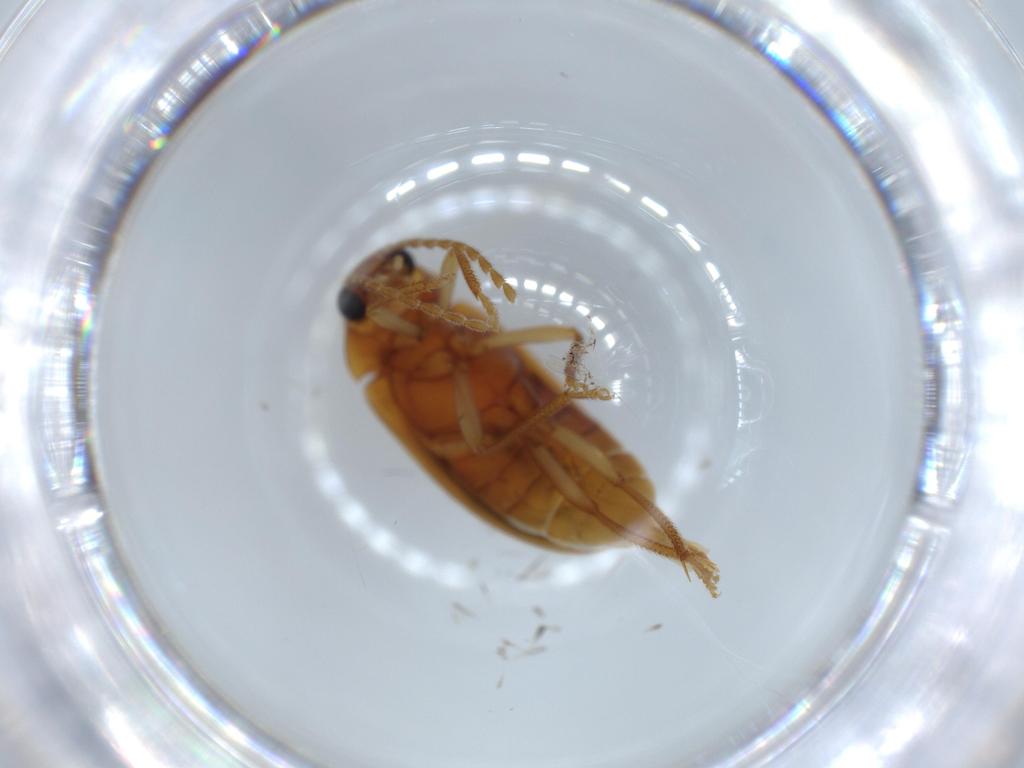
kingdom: Animalia
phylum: Arthropoda
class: Insecta
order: Coleoptera
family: Ptilodactylidae
